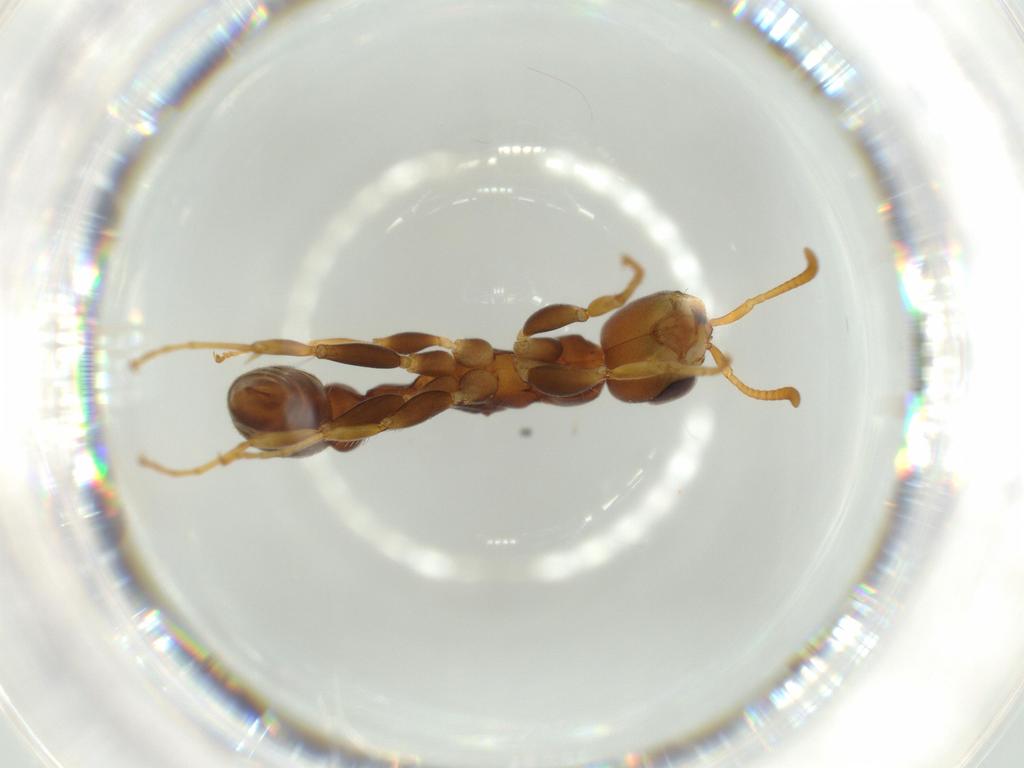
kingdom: Animalia
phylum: Arthropoda
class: Insecta
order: Hymenoptera
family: Formicidae
